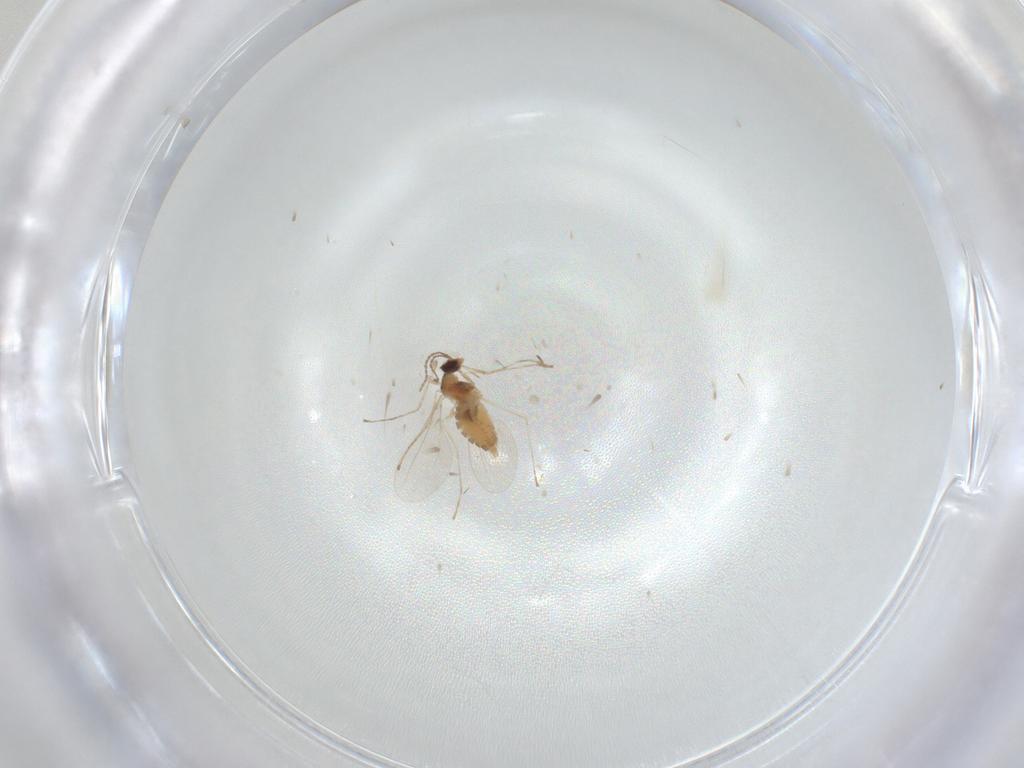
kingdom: Animalia
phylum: Arthropoda
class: Insecta
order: Diptera
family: Cecidomyiidae
